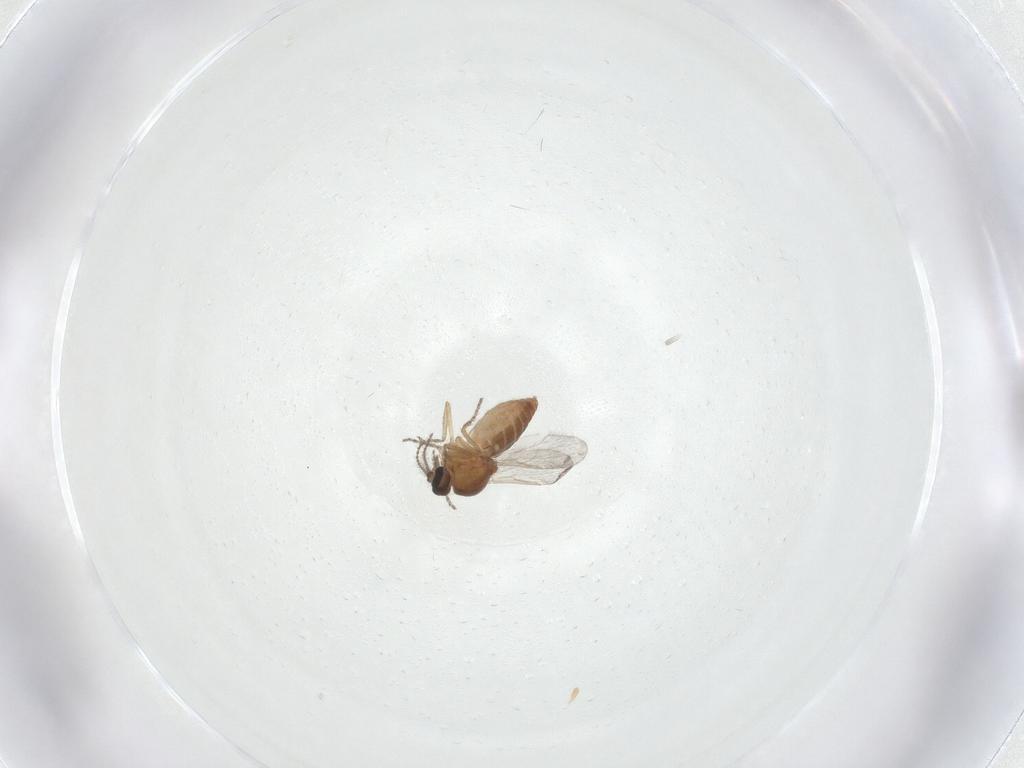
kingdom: Animalia
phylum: Arthropoda
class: Insecta
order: Diptera
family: Ceratopogonidae
